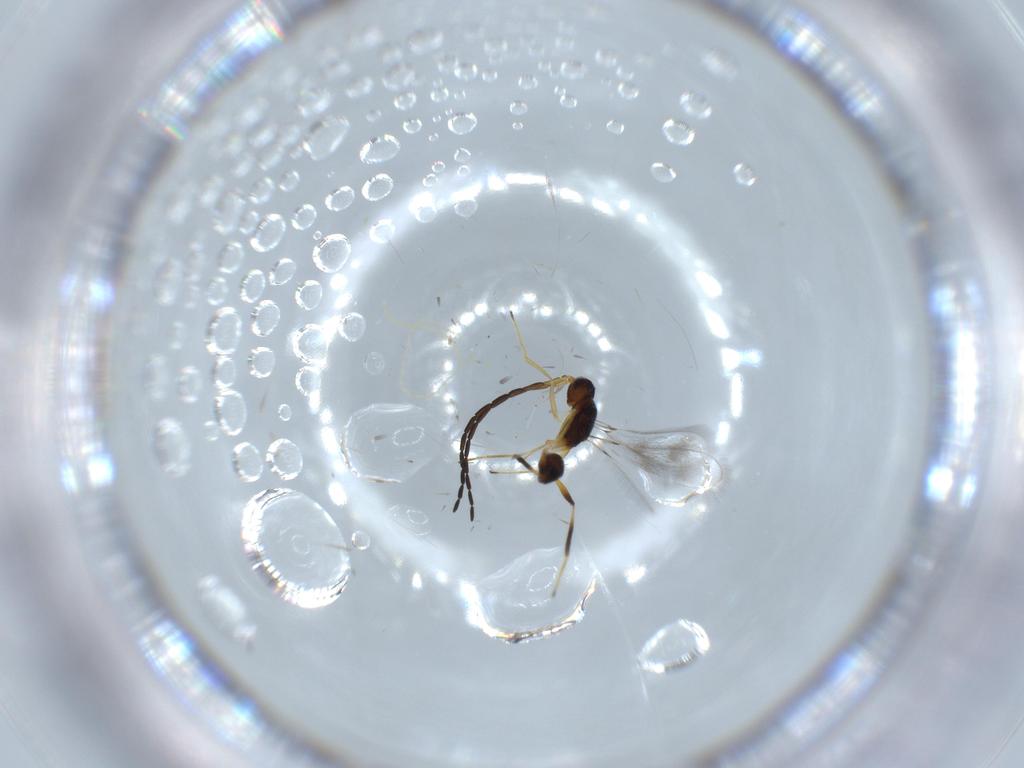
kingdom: Animalia
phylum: Arthropoda
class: Insecta
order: Hymenoptera
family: Mymaridae
